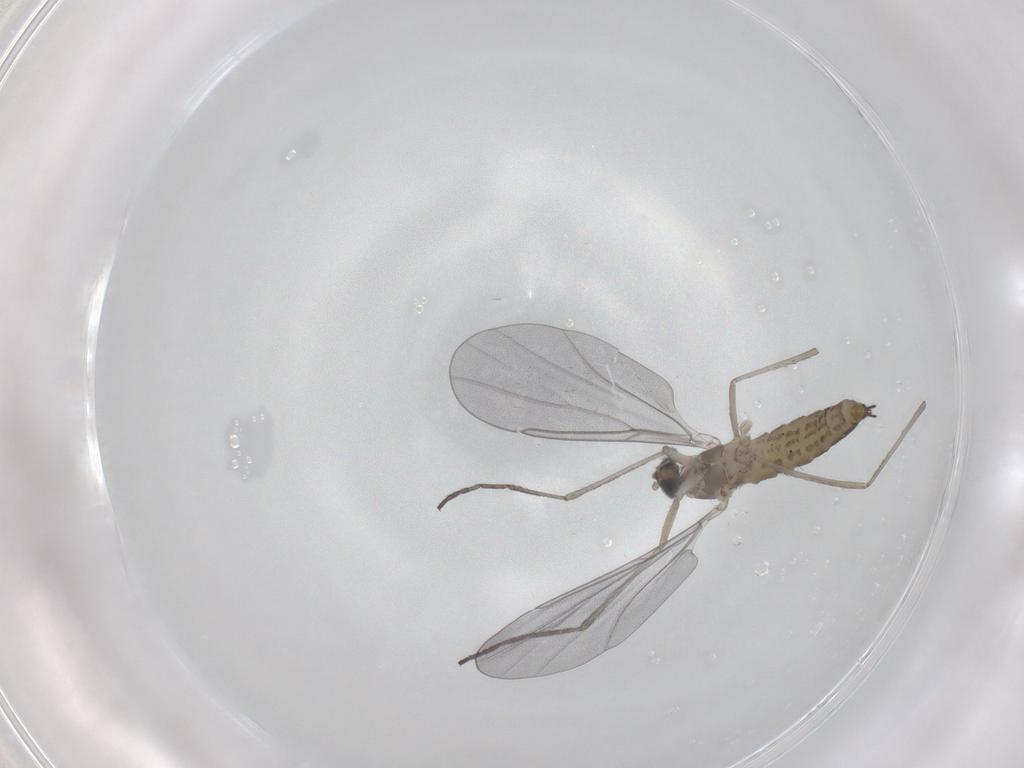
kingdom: Animalia
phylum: Arthropoda
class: Insecta
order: Diptera
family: Cecidomyiidae
